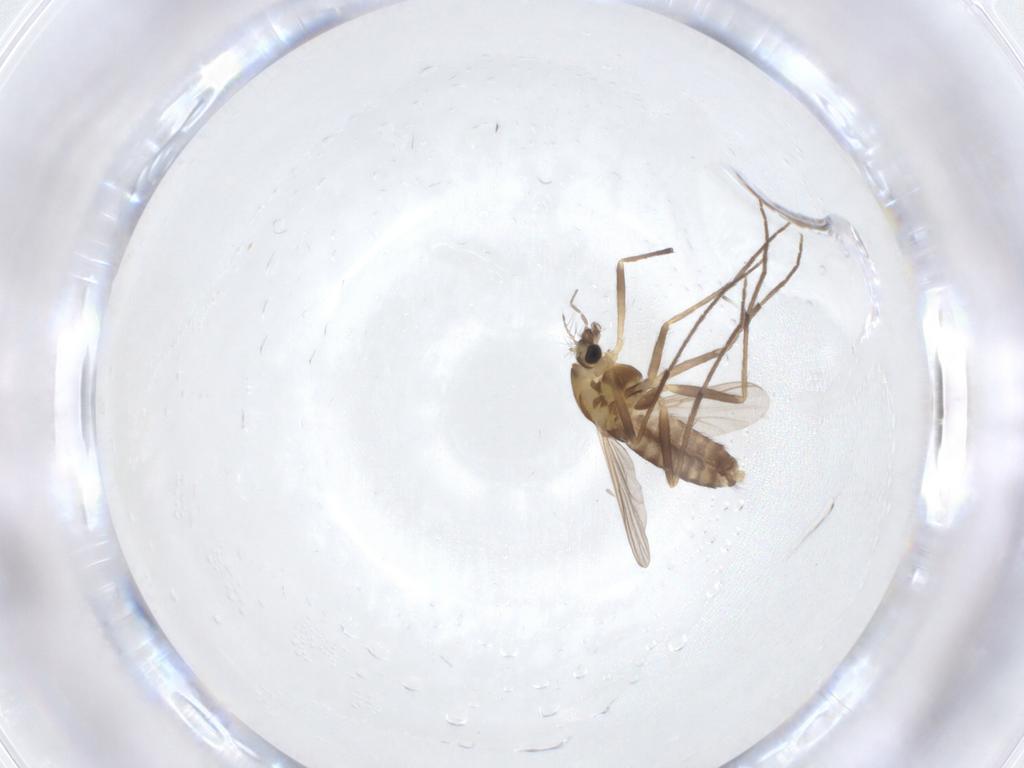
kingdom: Animalia
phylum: Arthropoda
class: Insecta
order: Diptera
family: Chironomidae
